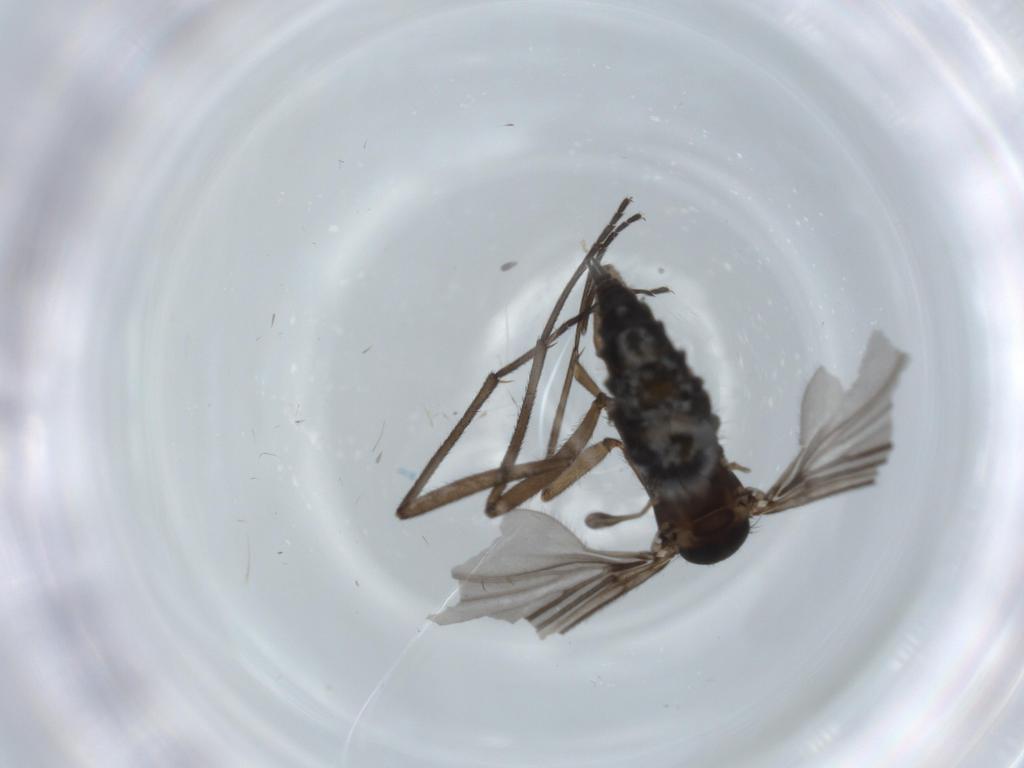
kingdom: Animalia
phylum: Arthropoda
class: Insecta
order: Diptera
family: Sciaridae
